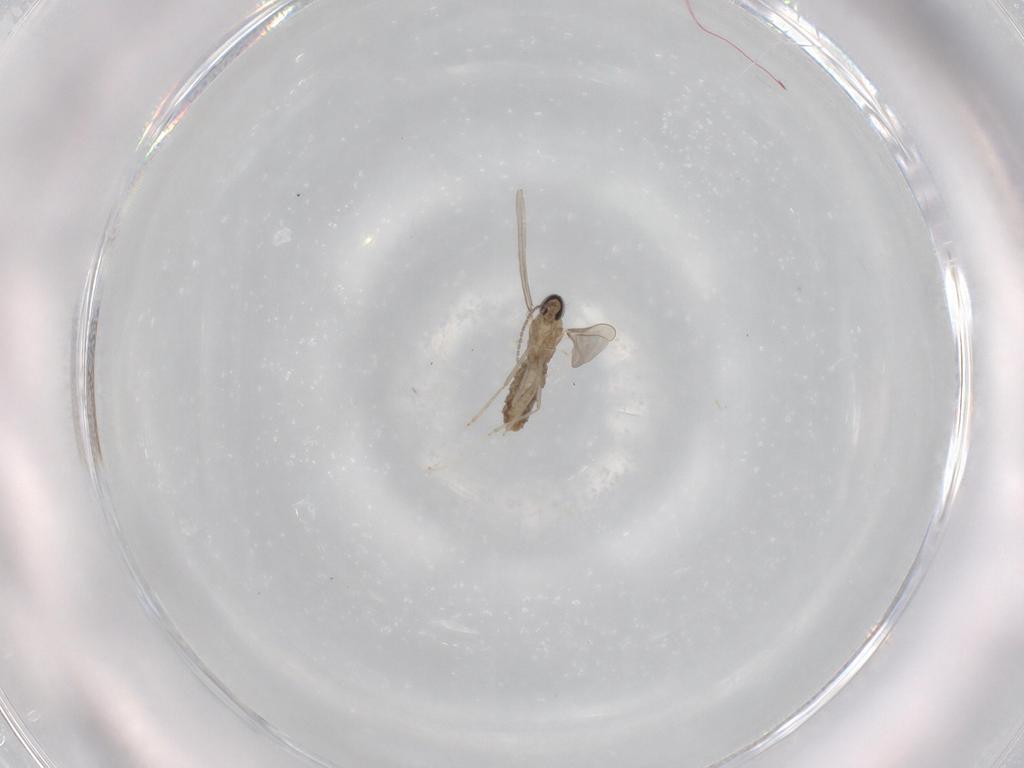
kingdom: Animalia
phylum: Arthropoda
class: Insecta
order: Diptera
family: Cecidomyiidae
